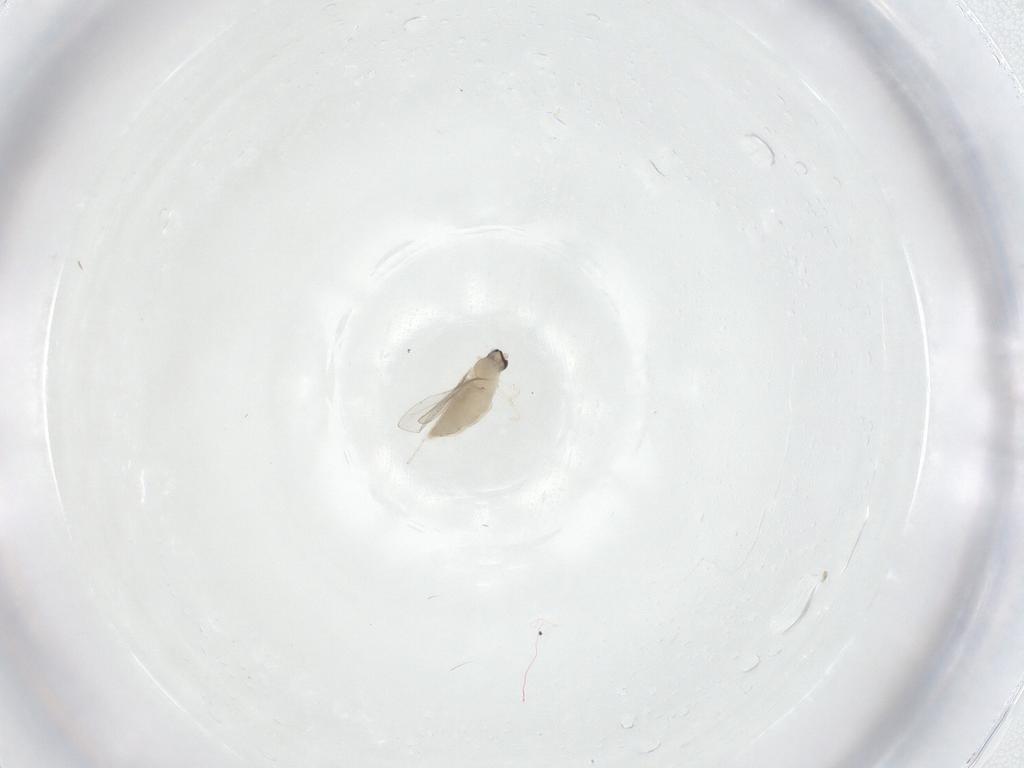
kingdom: Animalia
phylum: Arthropoda
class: Insecta
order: Diptera
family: Cecidomyiidae
